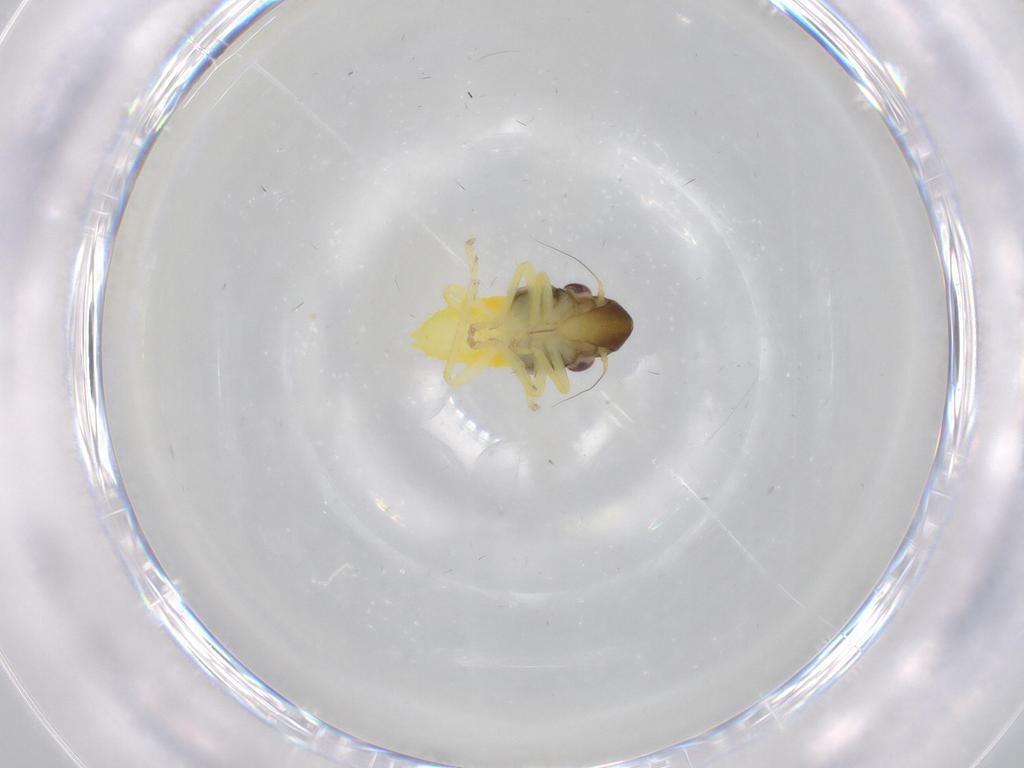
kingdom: Animalia
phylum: Arthropoda
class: Insecta
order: Hemiptera
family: Cicadellidae
